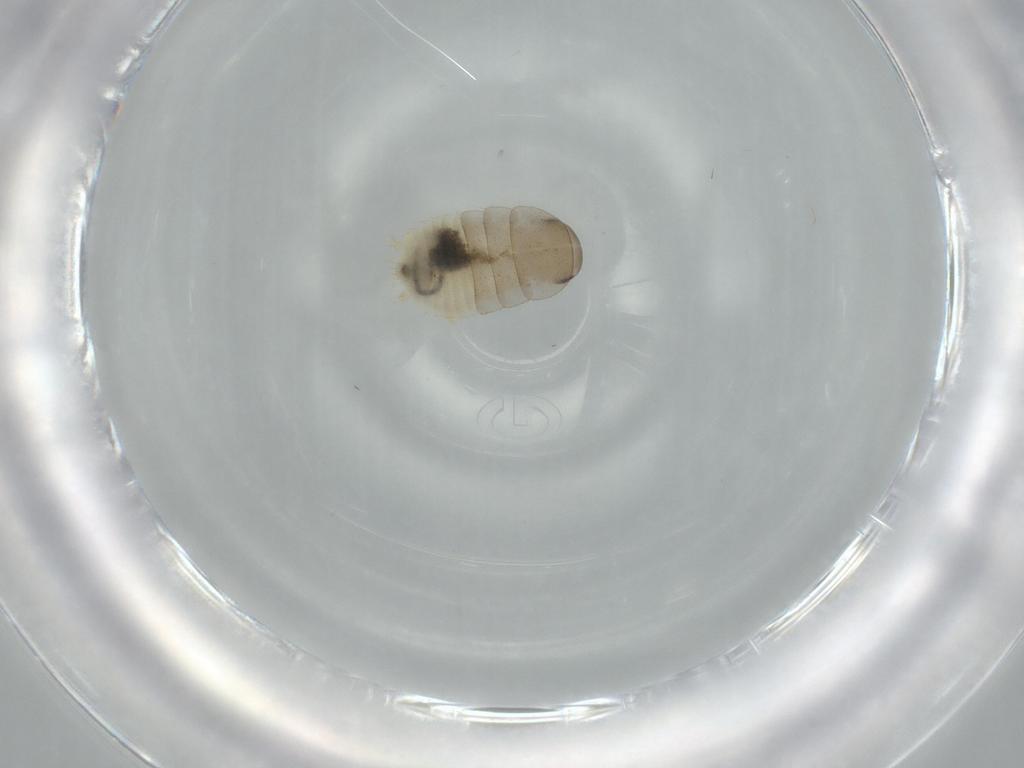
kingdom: Animalia
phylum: Arthropoda
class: Insecta
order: Blattodea
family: Ectobiidae
